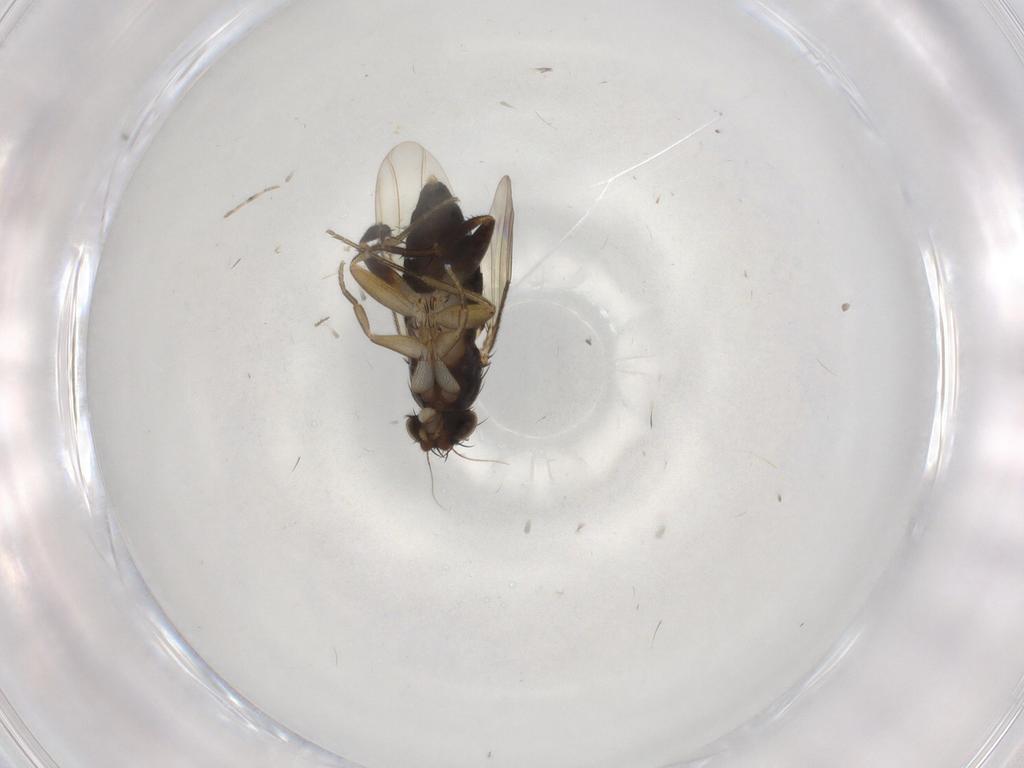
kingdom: Animalia
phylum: Arthropoda
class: Insecta
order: Diptera
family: Phoridae
